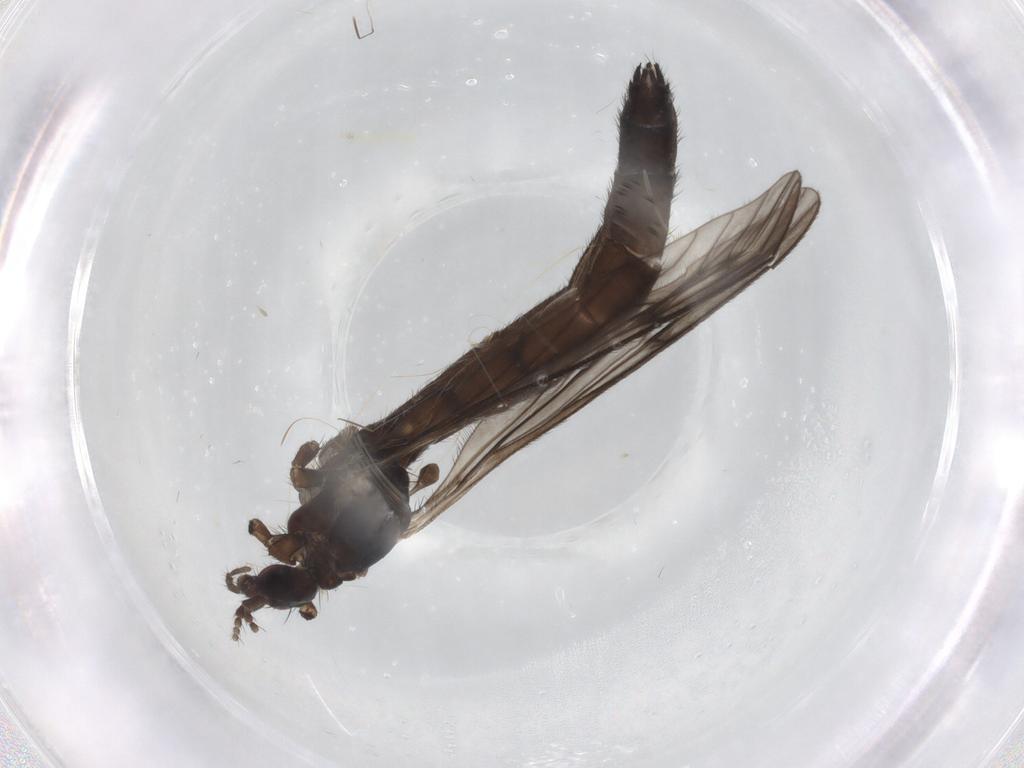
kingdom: Animalia
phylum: Arthropoda
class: Insecta
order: Diptera
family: Limoniidae
